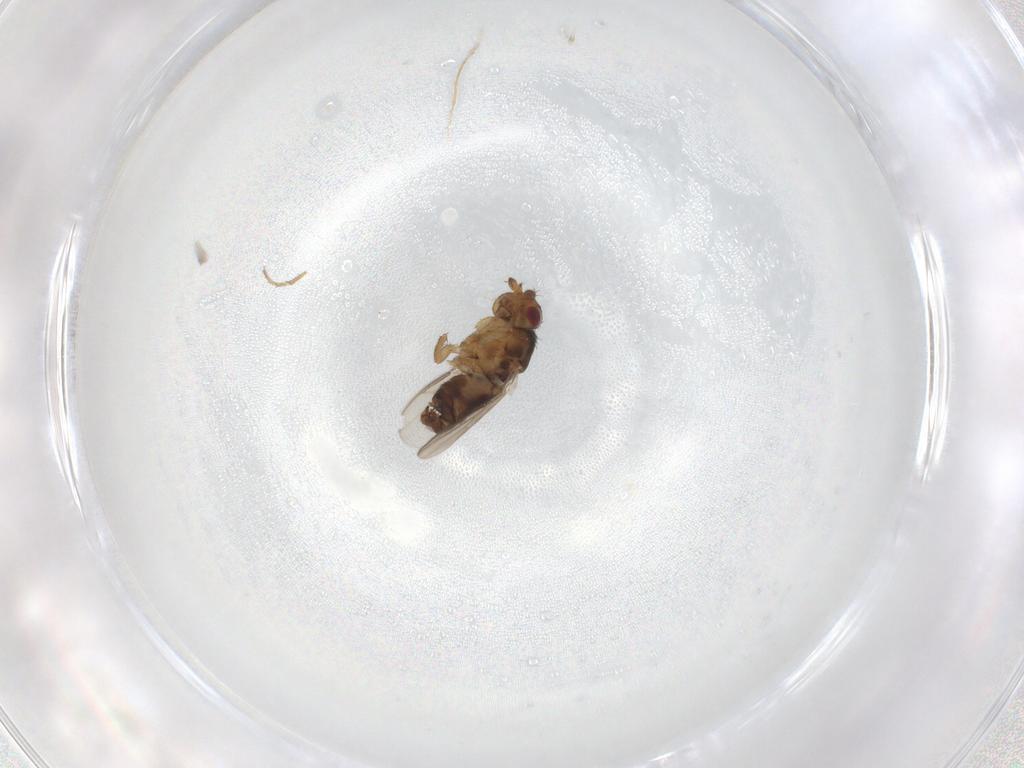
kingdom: Animalia
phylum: Arthropoda
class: Insecta
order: Diptera
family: Cecidomyiidae
